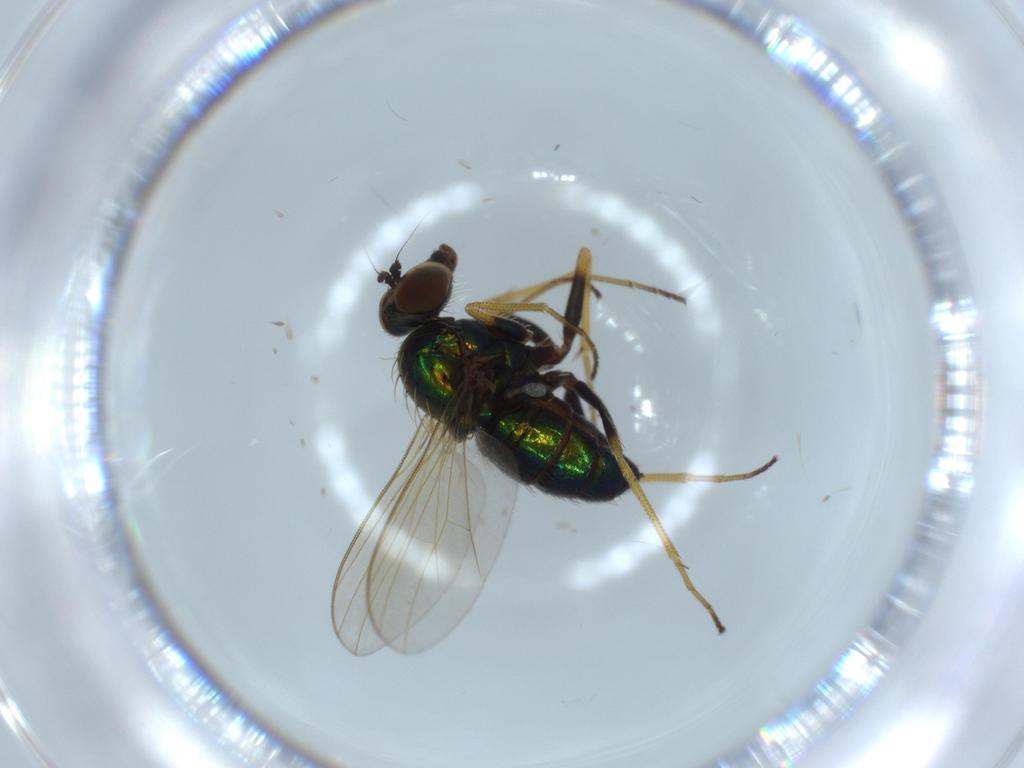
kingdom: Animalia
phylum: Arthropoda
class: Insecta
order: Diptera
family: Dolichopodidae
